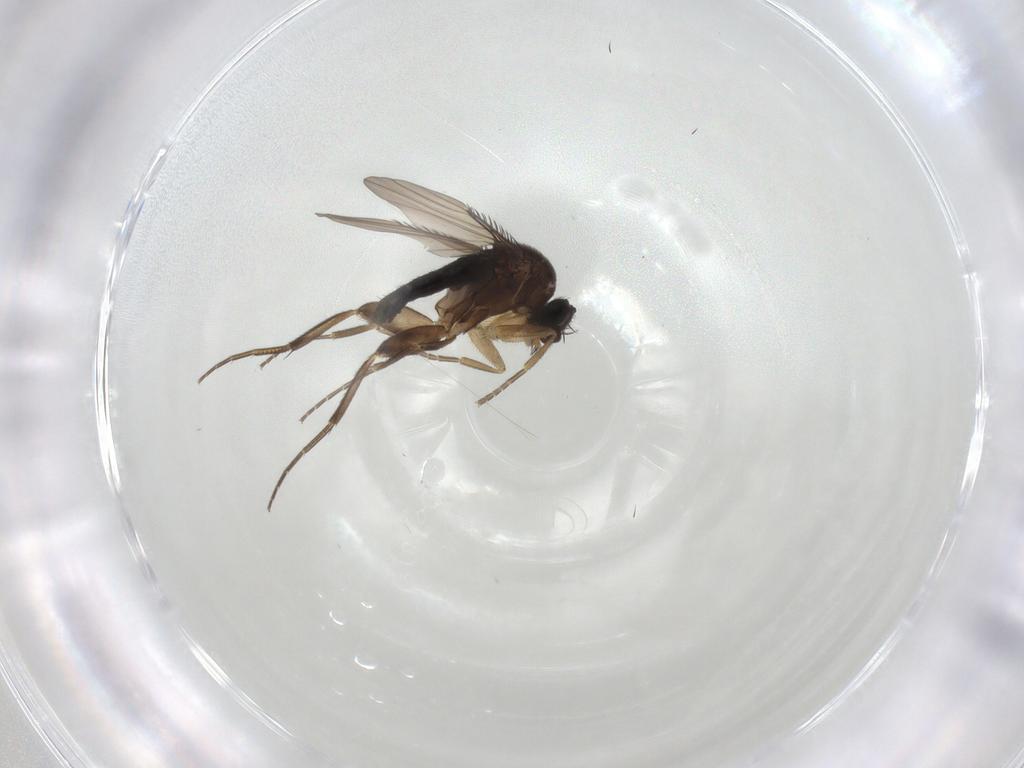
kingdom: Animalia
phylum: Arthropoda
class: Insecta
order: Diptera
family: Phoridae
